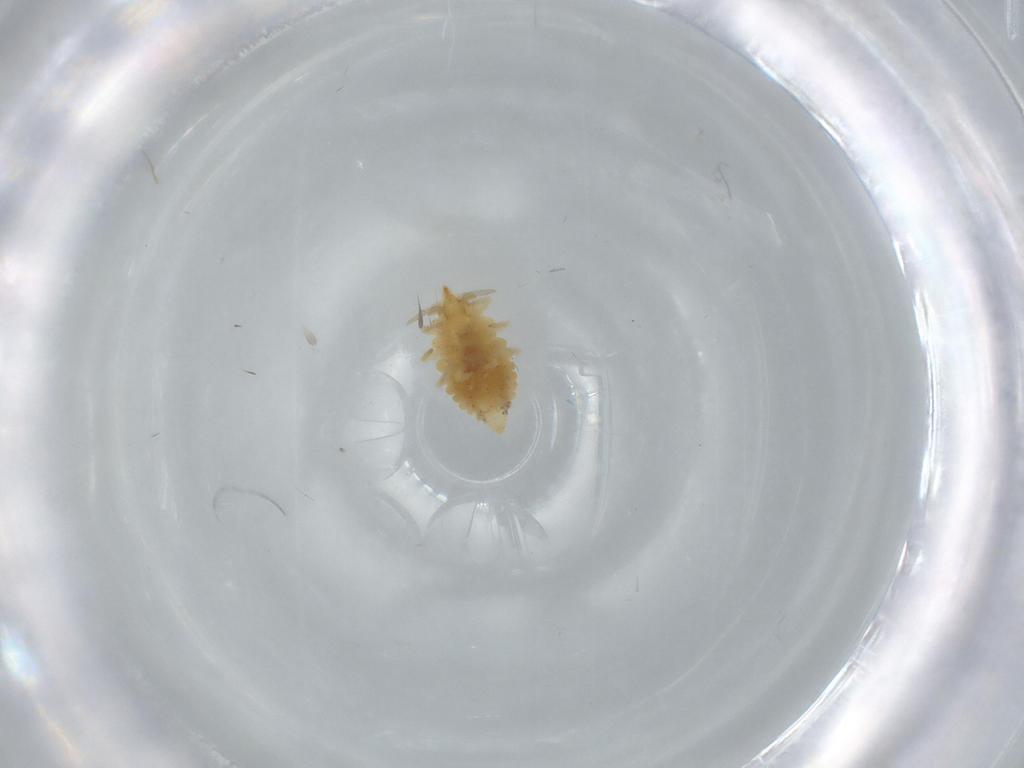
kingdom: Animalia
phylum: Arthropoda
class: Insecta
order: Neuroptera
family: Coniopterygidae
